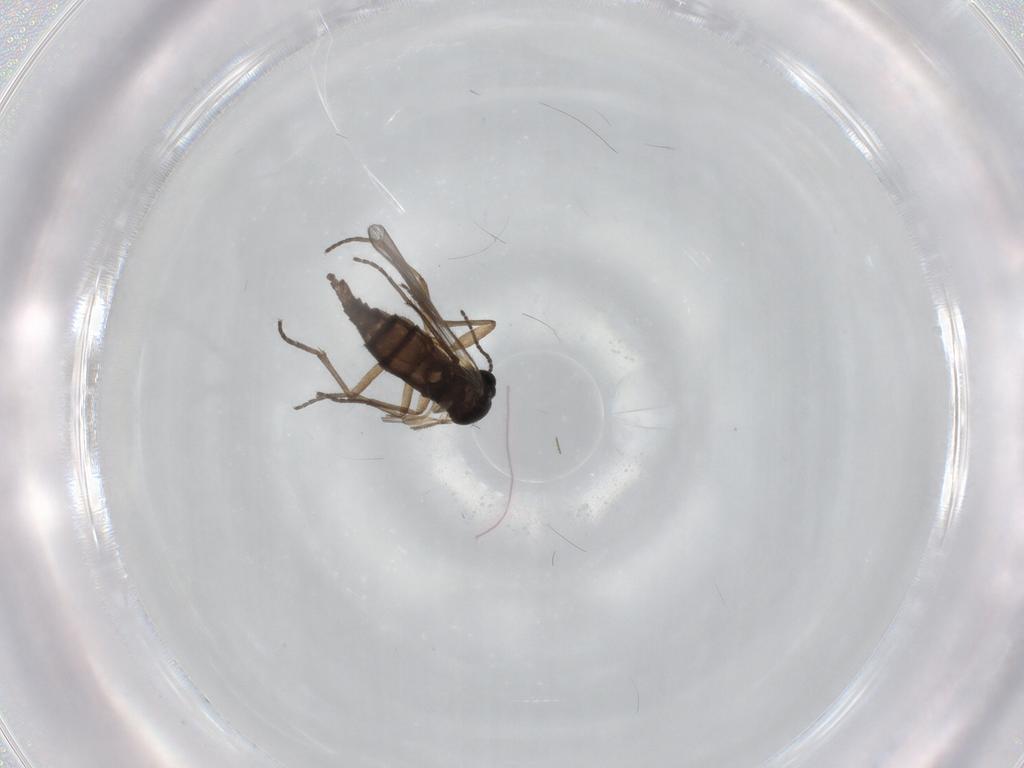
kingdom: Animalia
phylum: Arthropoda
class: Insecta
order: Diptera
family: Sciaridae
